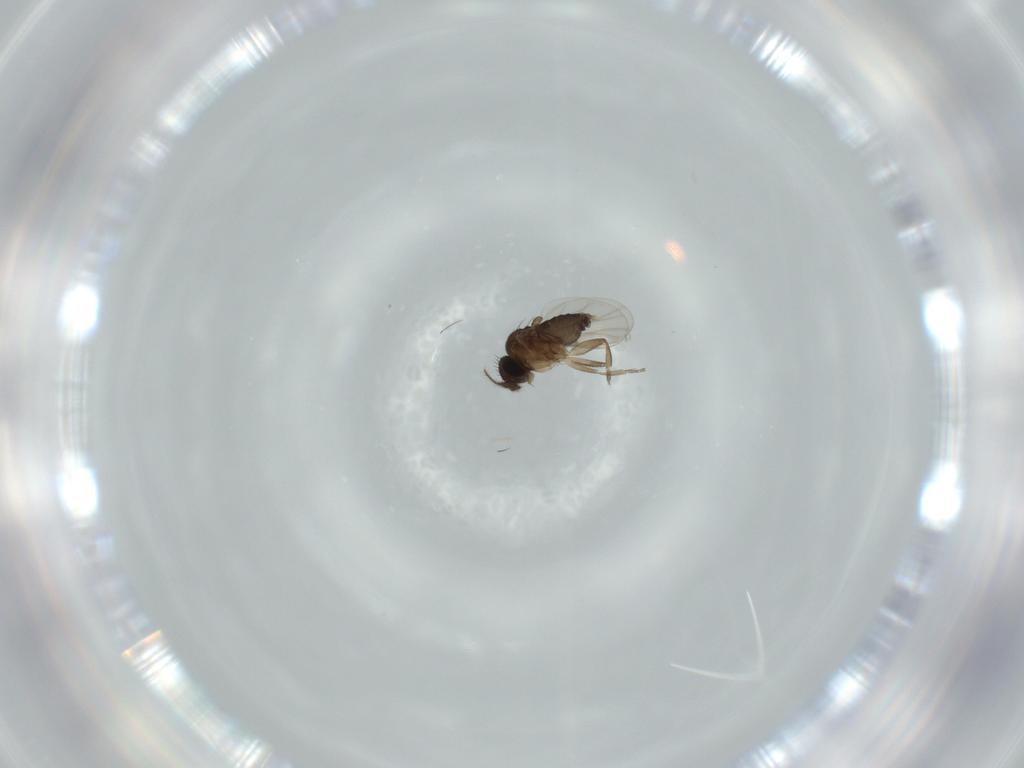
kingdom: Animalia
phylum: Arthropoda
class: Insecta
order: Diptera
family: Phoridae
